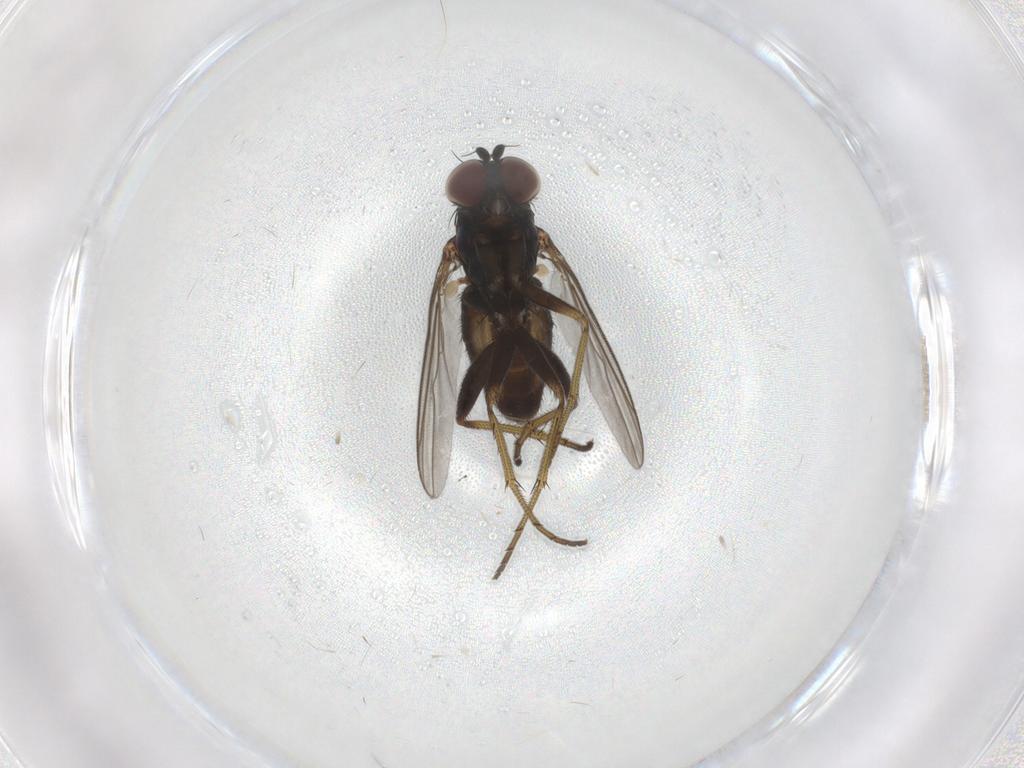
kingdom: Animalia
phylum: Arthropoda
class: Insecta
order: Diptera
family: Dolichopodidae
